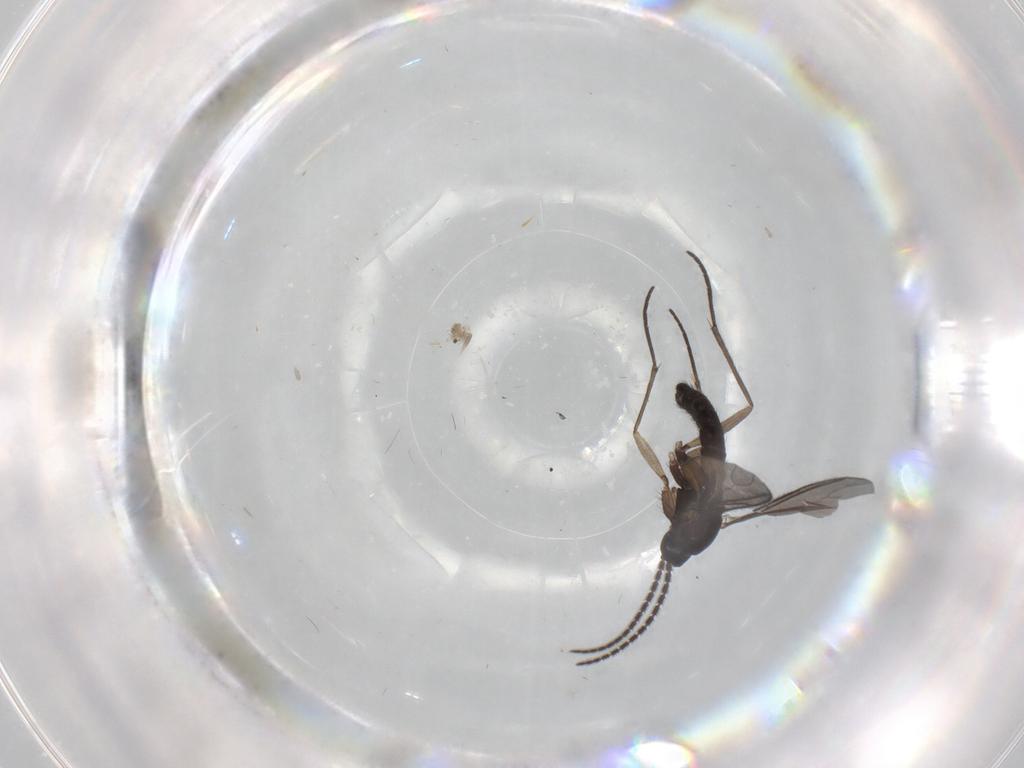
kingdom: Animalia
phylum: Arthropoda
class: Insecta
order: Diptera
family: Sciaridae
